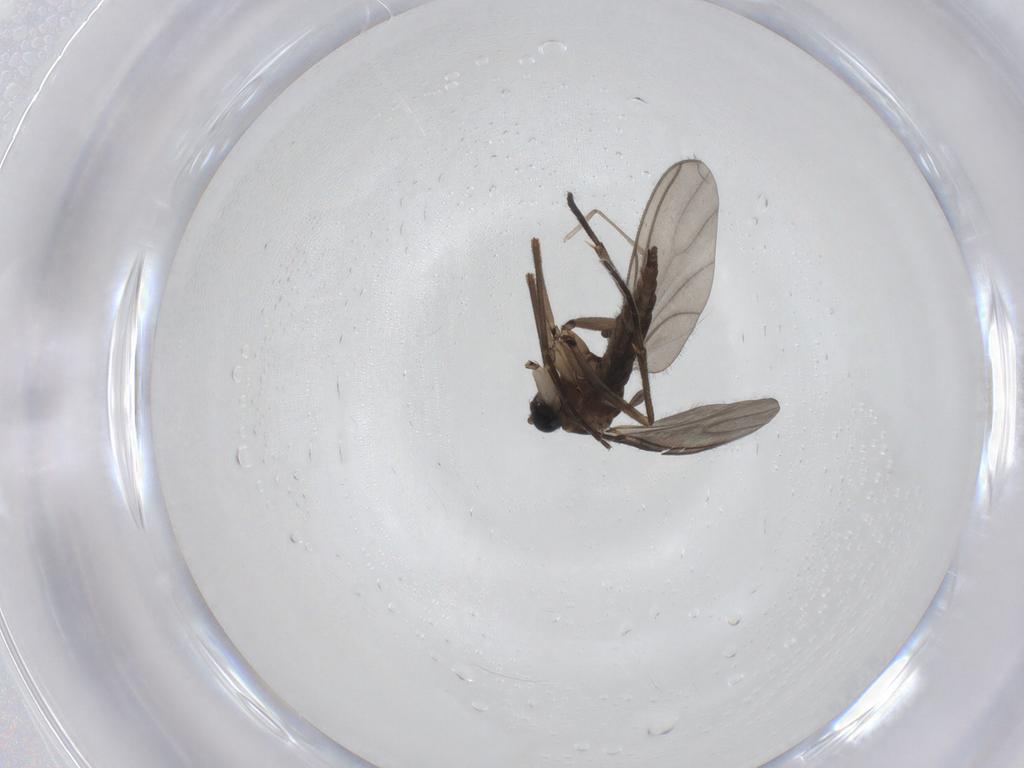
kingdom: Animalia
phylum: Arthropoda
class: Insecta
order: Diptera
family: Sciaridae
